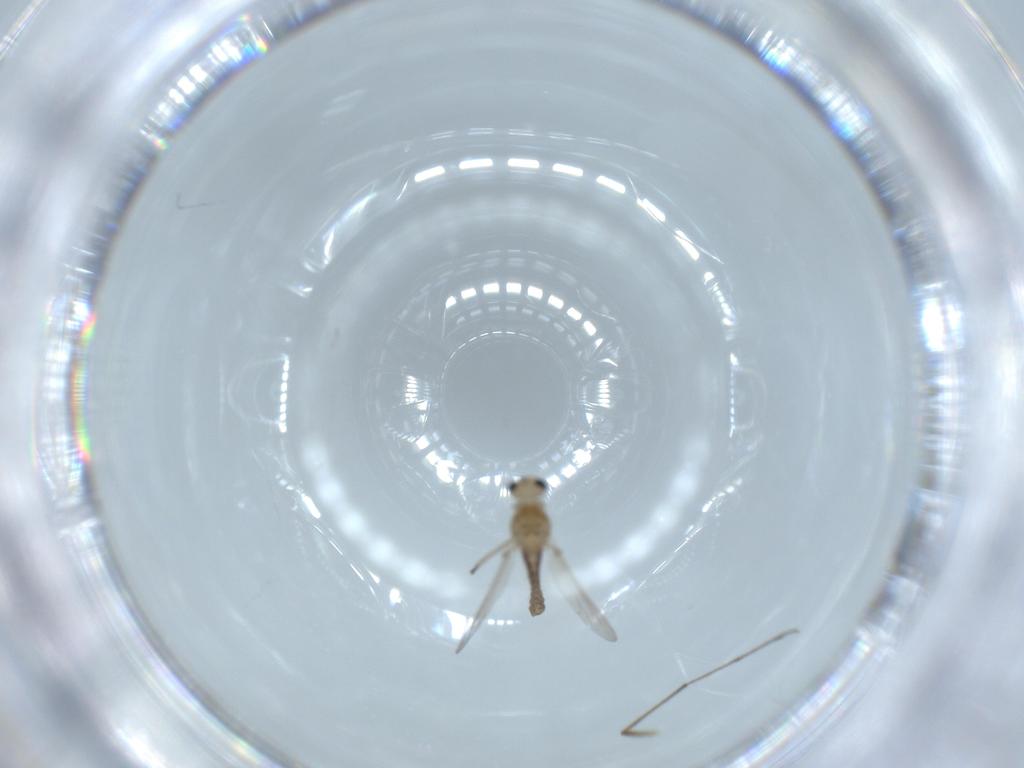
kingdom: Animalia
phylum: Arthropoda
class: Insecta
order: Diptera
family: Chironomidae
